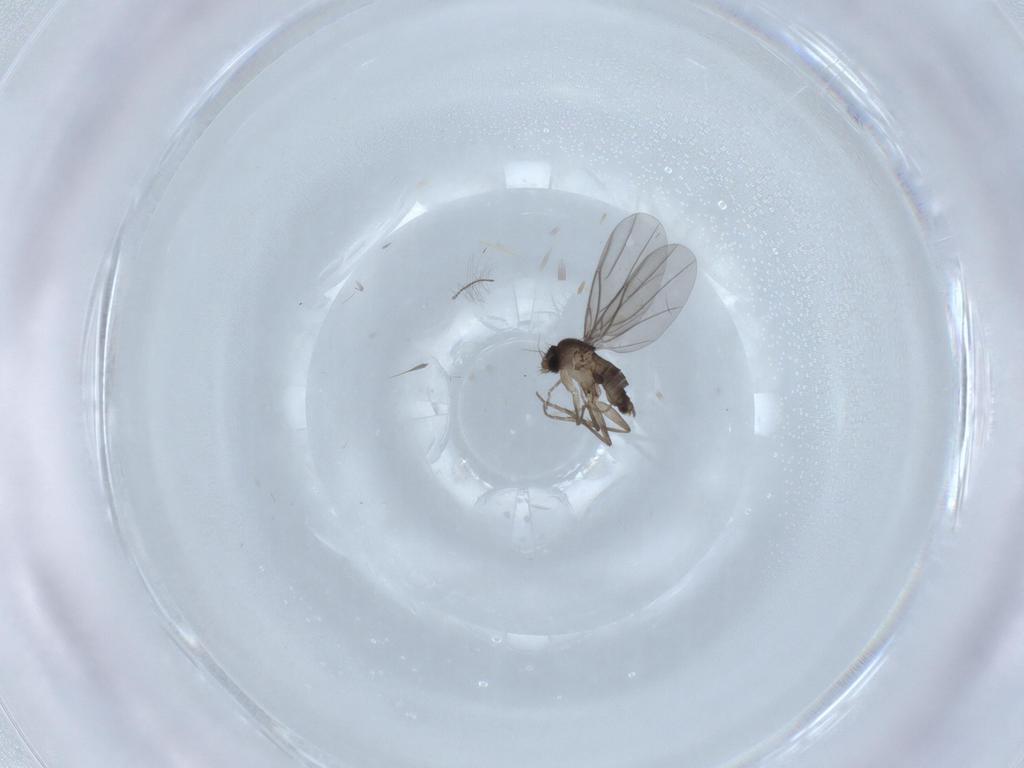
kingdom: Animalia
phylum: Arthropoda
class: Insecta
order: Diptera
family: Phoridae
